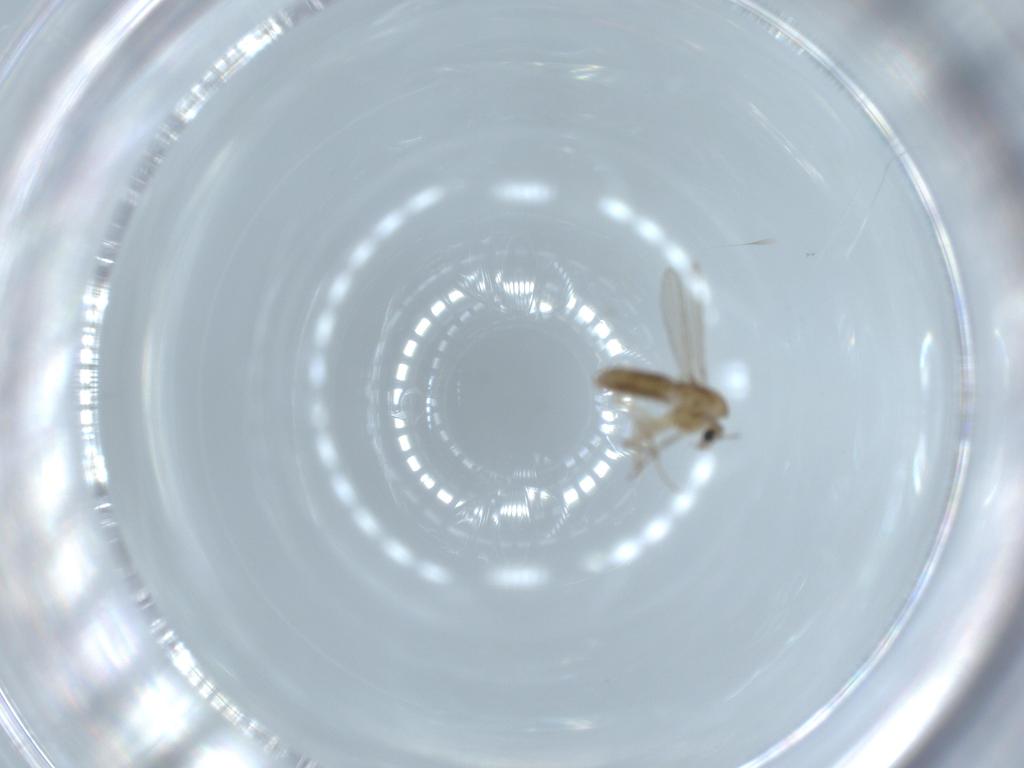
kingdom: Animalia
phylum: Arthropoda
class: Insecta
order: Diptera
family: Chironomidae
